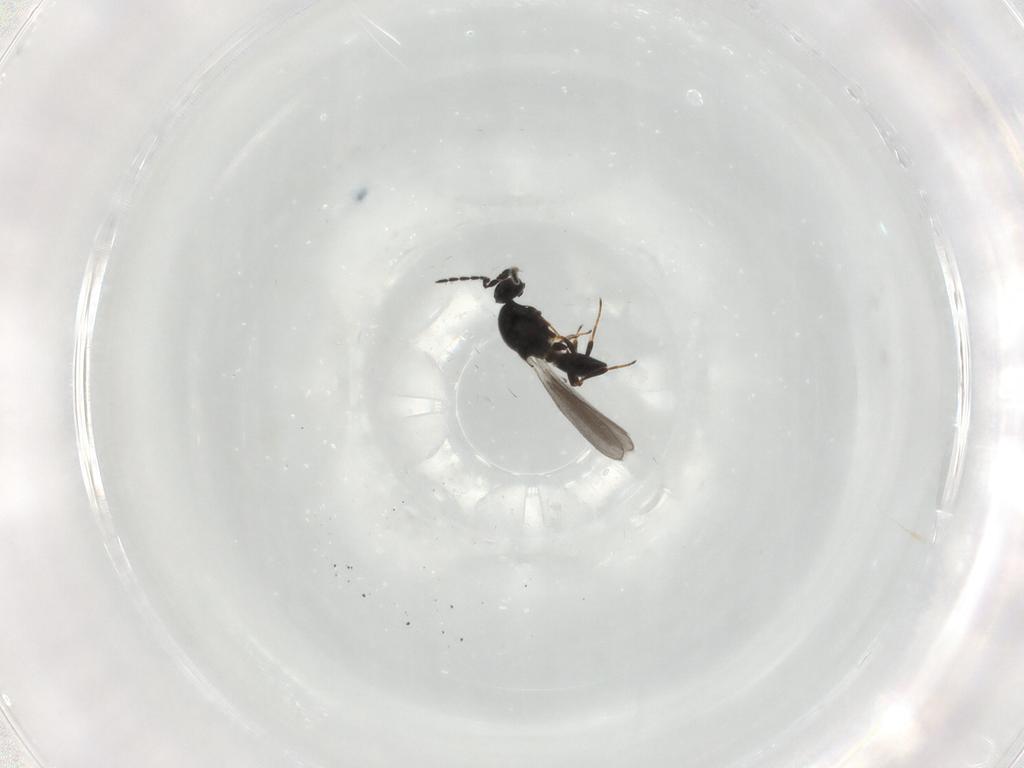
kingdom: Animalia
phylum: Arthropoda
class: Insecta
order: Hymenoptera
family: Platygastridae
